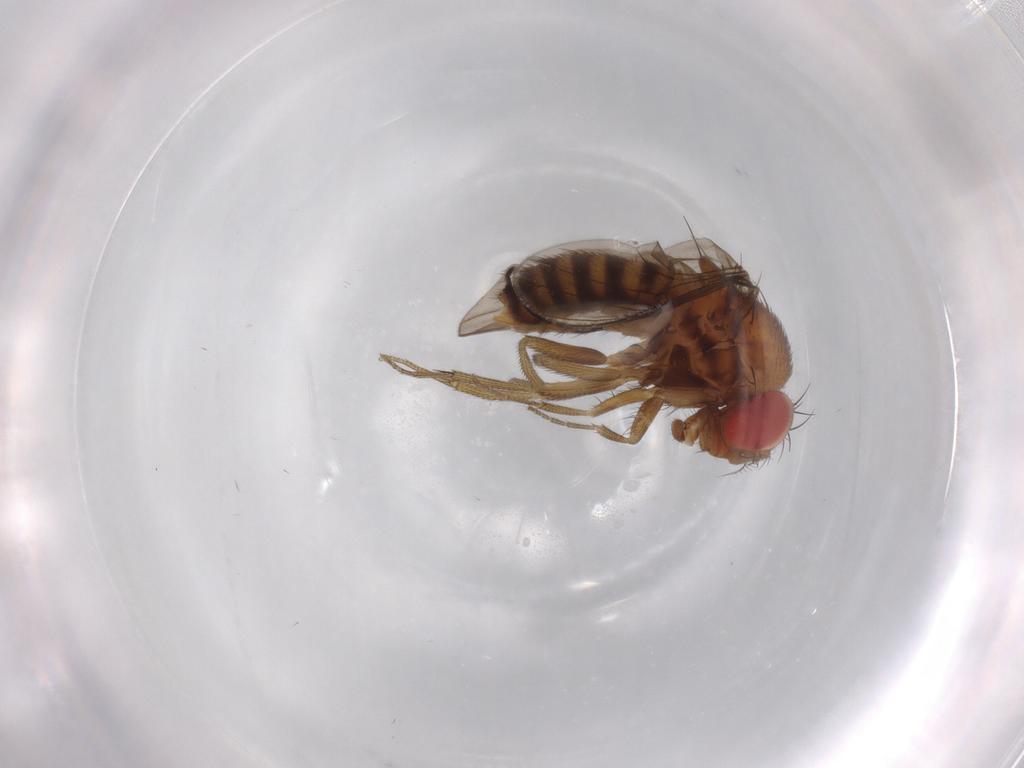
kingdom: Animalia
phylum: Arthropoda
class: Insecta
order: Diptera
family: Drosophilidae
